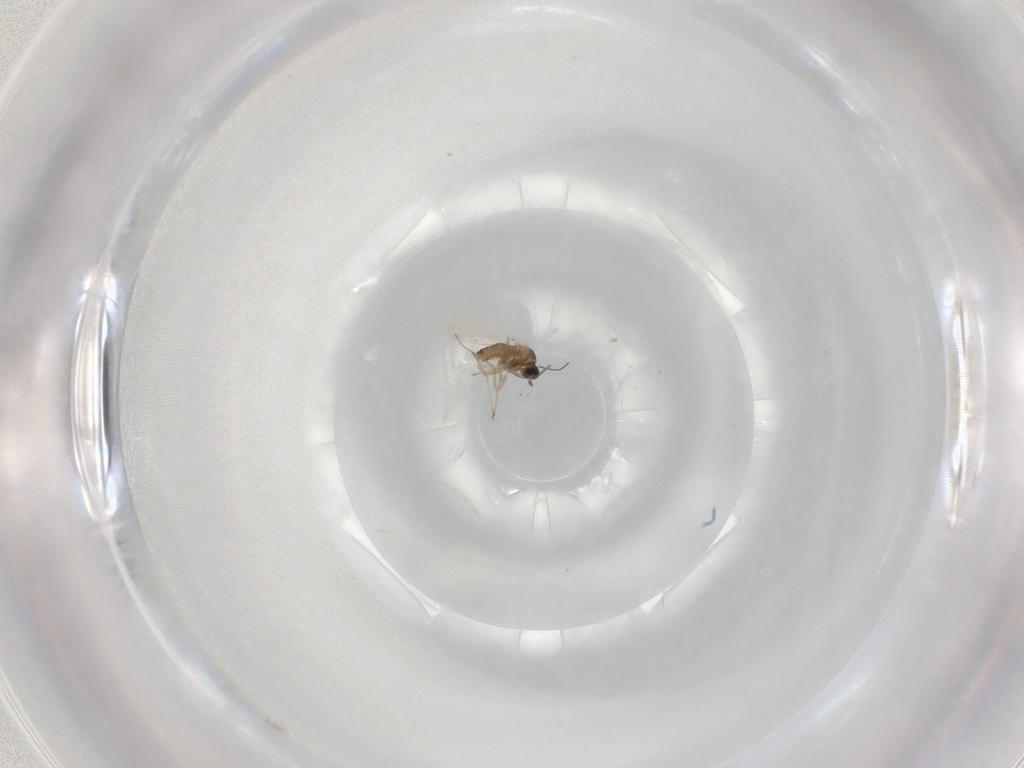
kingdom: Animalia
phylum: Arthropoda
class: Insecta
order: Diptera
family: Cecidomyiidae
